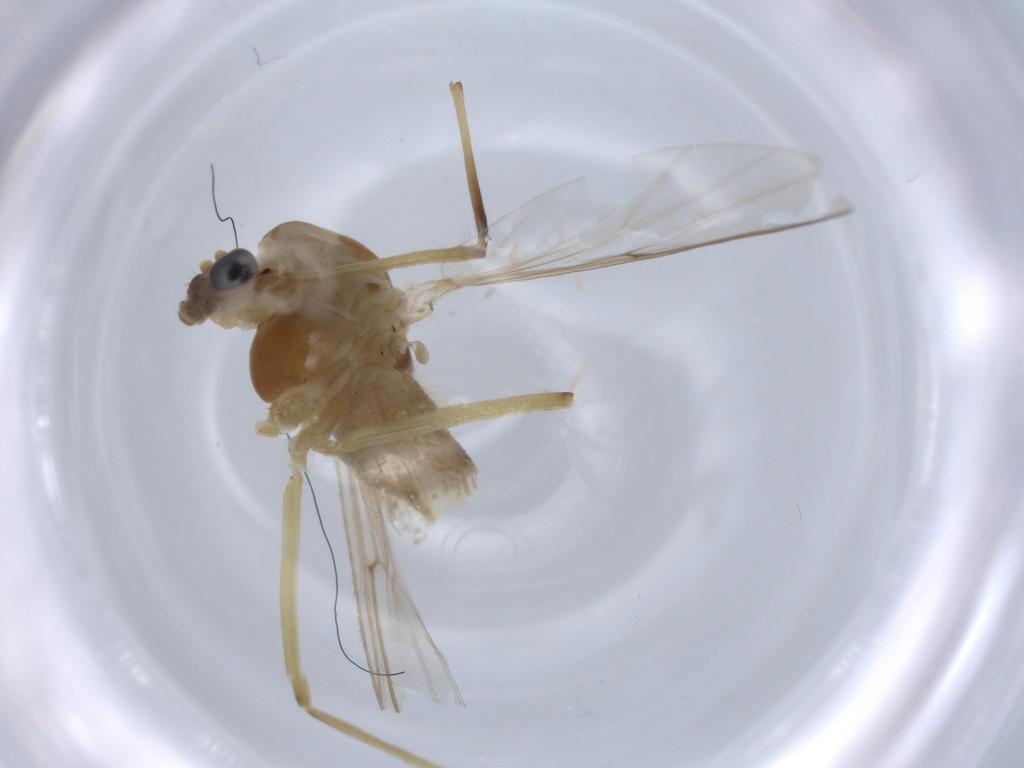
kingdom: Animalia
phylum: Arthropoda
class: Insecta
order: Diptera
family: Chironomidae
